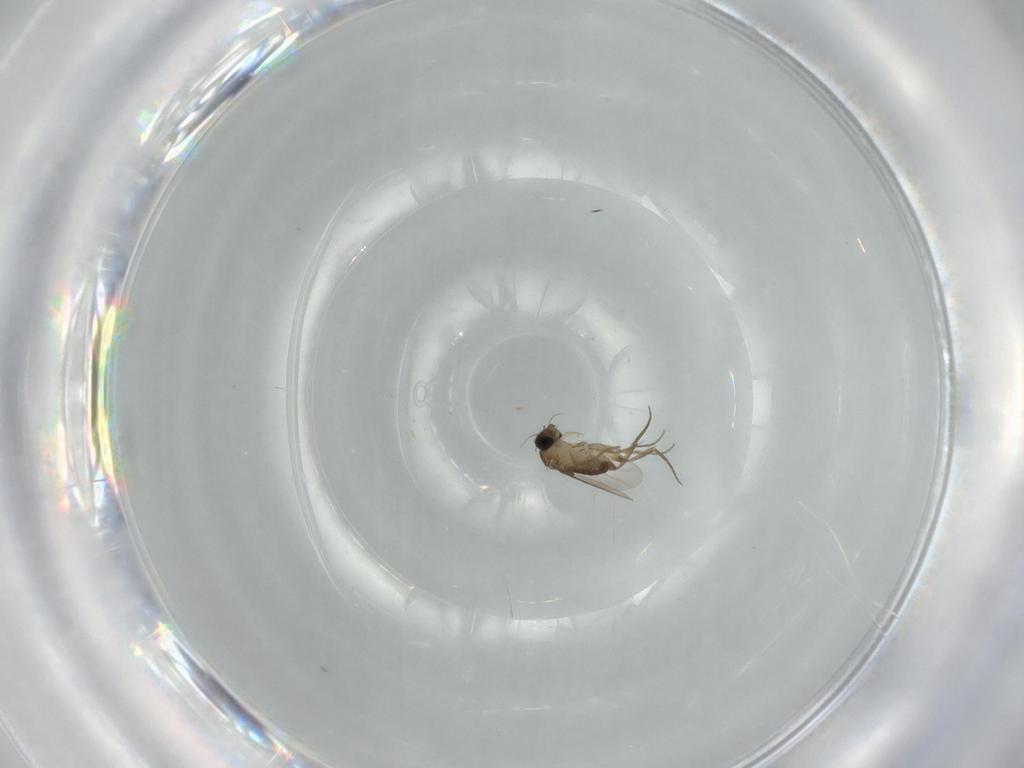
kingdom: Animalia
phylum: Arthropoda
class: Insecta
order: Diptera
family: Phoridae
